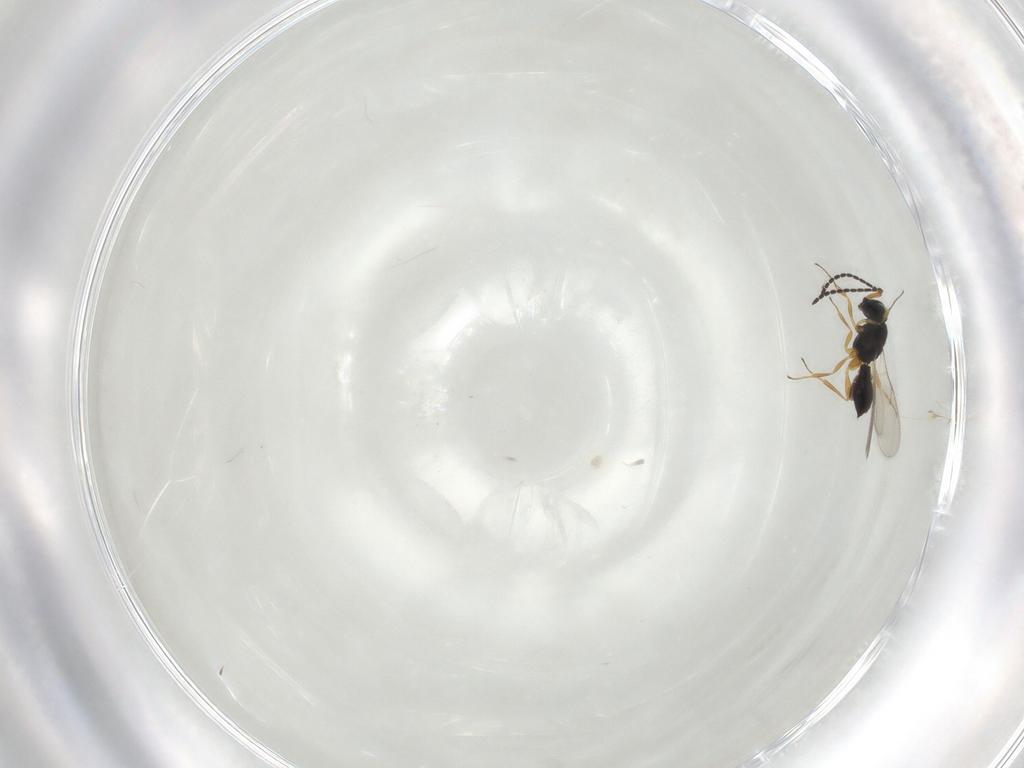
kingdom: Animalia
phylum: Arthropoda
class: Insecta
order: Hymenoptera
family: Scelionidae
